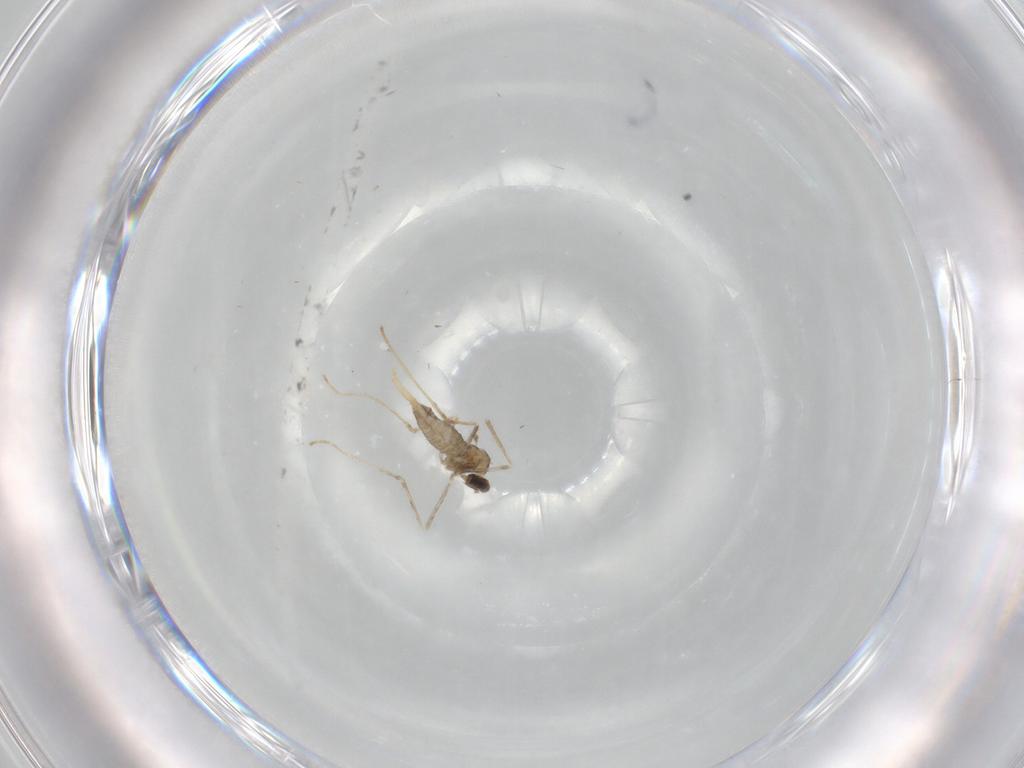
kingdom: Animalia
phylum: Arthropoda
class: Insecta
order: Diptera
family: Cecidomyiidae
